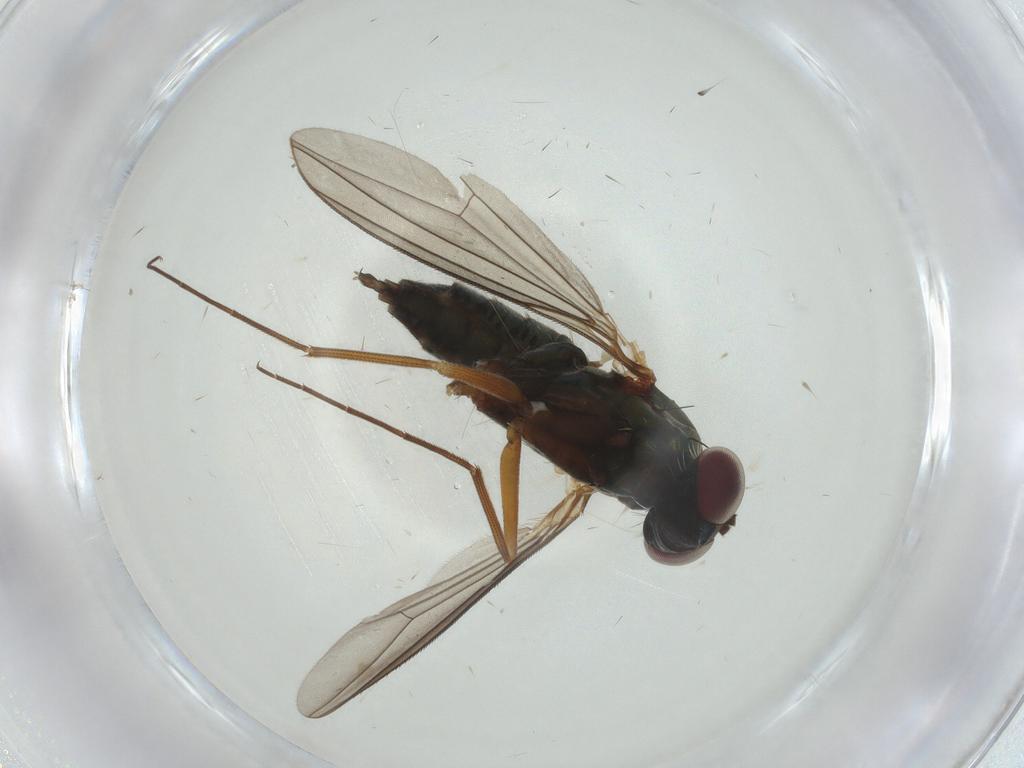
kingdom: Animalia
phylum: Arthropoda
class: Insecta
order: Diptera
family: Dolichopodidae
